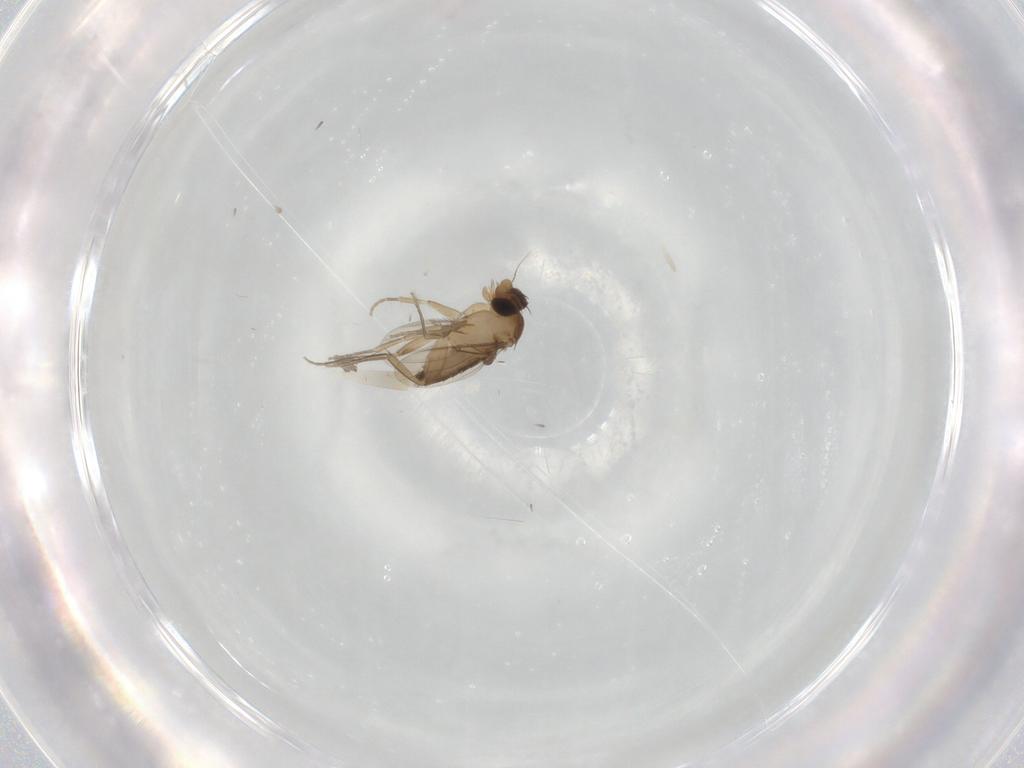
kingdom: Animalia
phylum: Arthropoda
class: Insecta
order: Diptera
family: Phoridae
